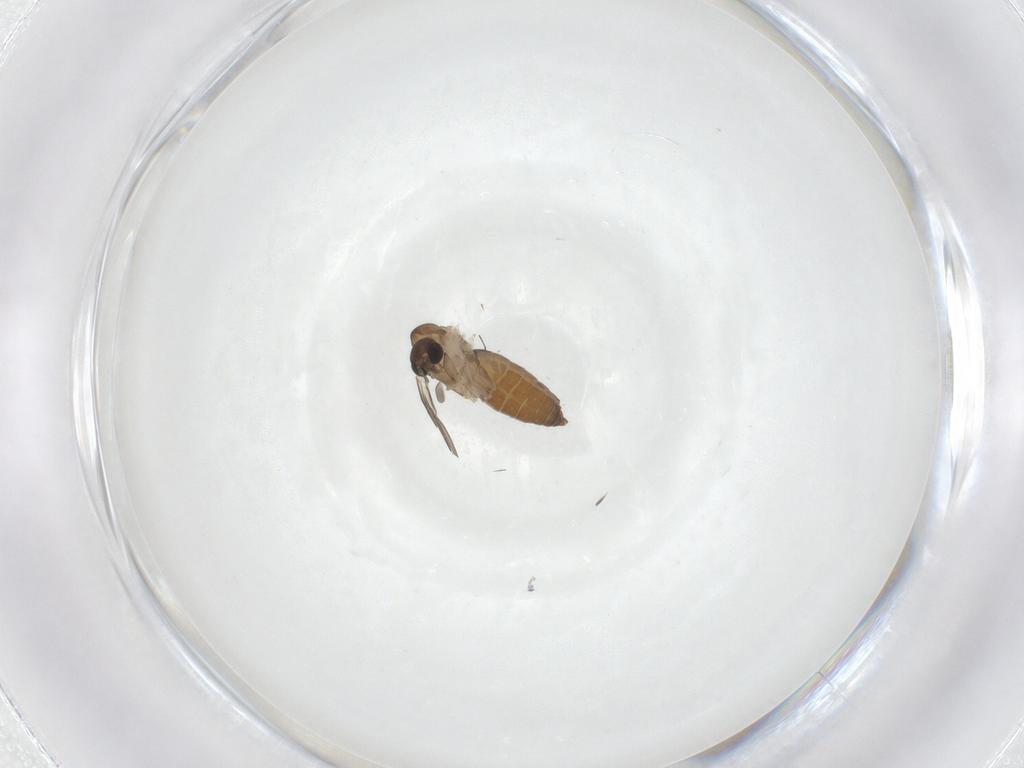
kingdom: Animalia
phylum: Arthropoda
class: Insecta
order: Diptera
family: Psychodidae
